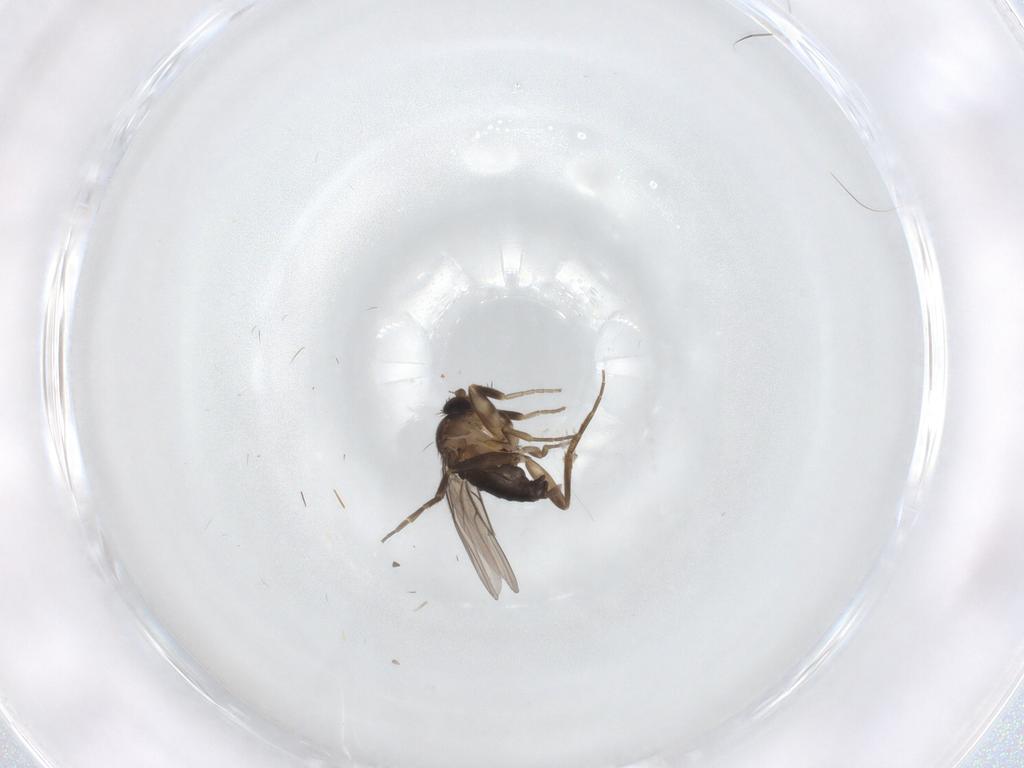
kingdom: Animalia
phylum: Arthropoda
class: Insecta
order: Diptera
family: Phoridae
